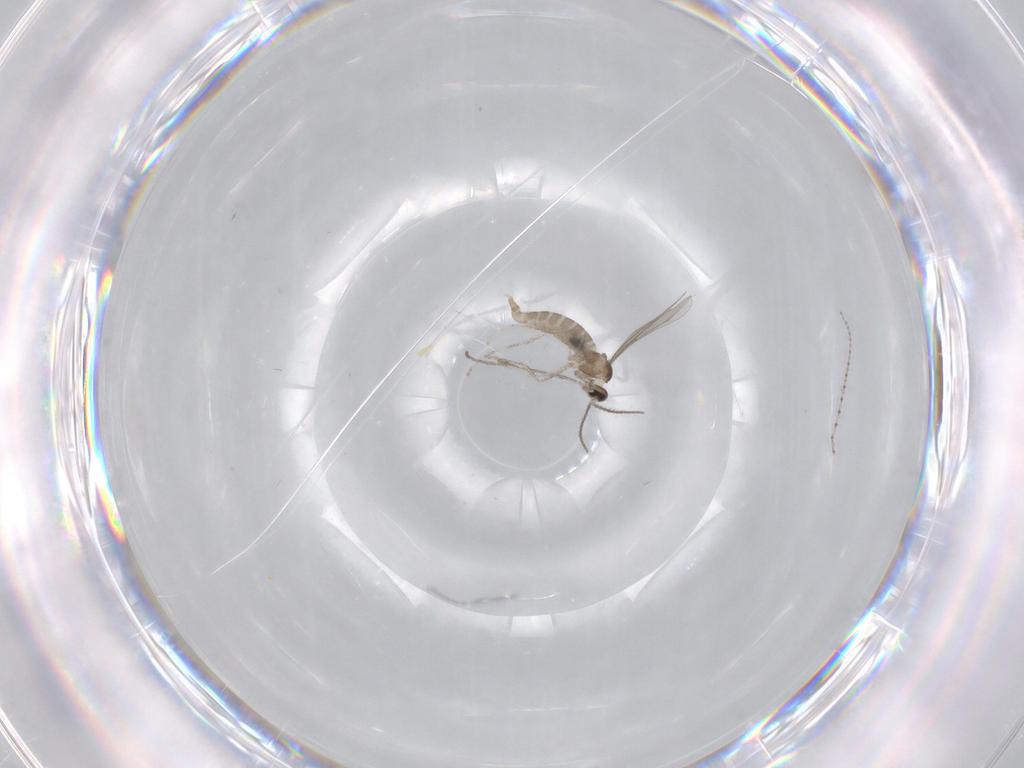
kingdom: Animalia
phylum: Arthropoda
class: Insecta
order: Diptera
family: Cecidomyiidae
